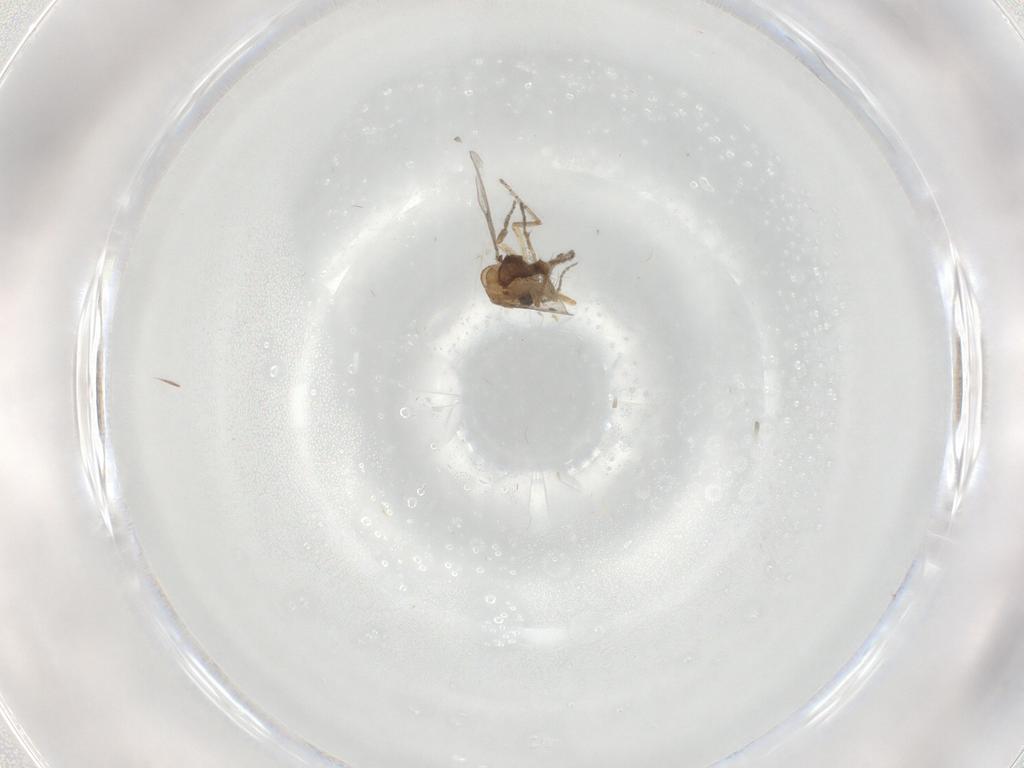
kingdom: Animalia
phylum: Arthropoda
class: Insecta
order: Diptera
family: Ceratopogonidae
